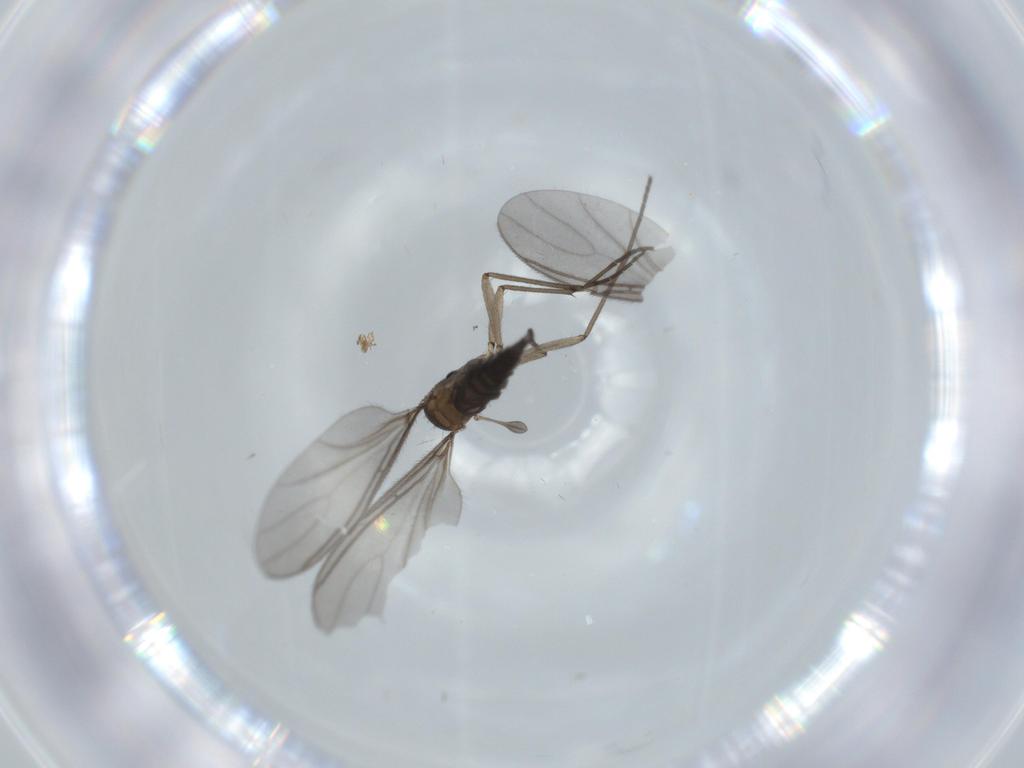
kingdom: Animalia
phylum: Arthropoda
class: Insecta
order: Diptera
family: Sciaridae
